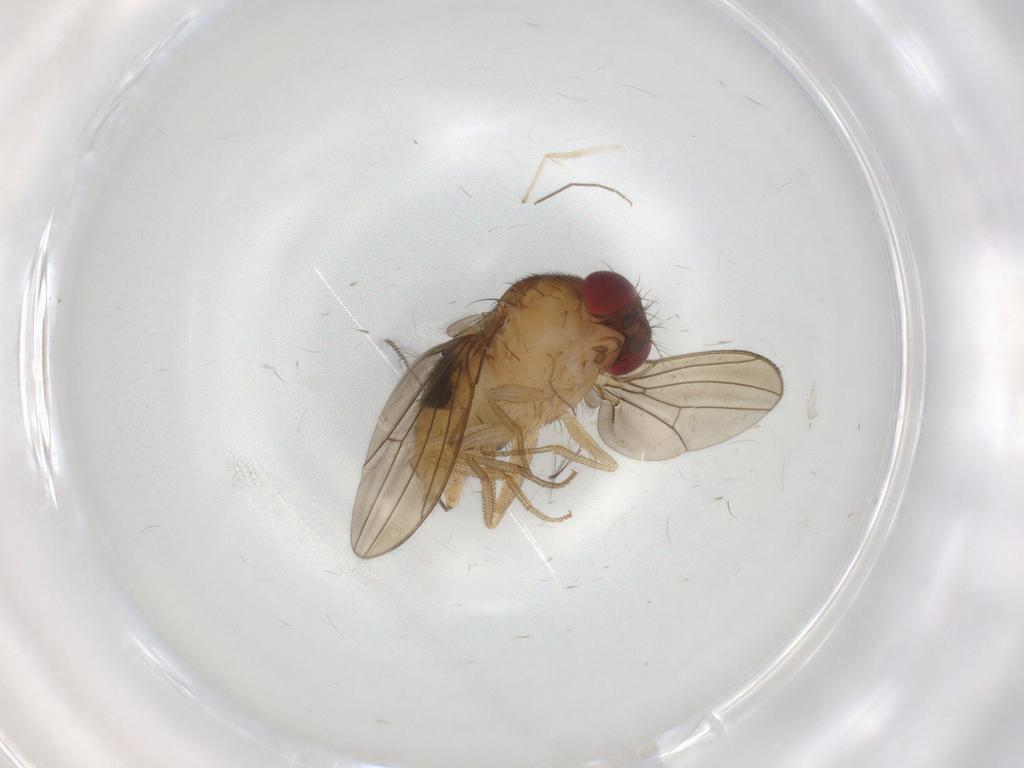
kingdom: Animalia
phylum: Arthropoda
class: Insecta
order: Diptera
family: Drosophilidae
